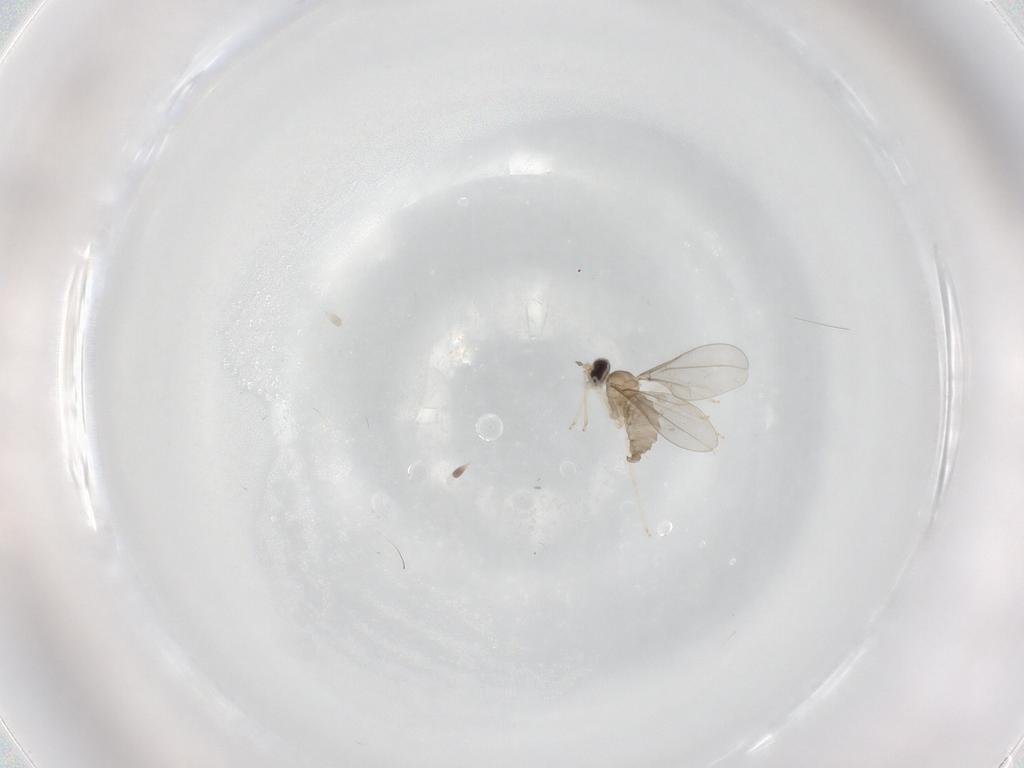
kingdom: Animalia
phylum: Arthropoda
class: Insecta
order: Diptera
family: Cecidomyiidae
